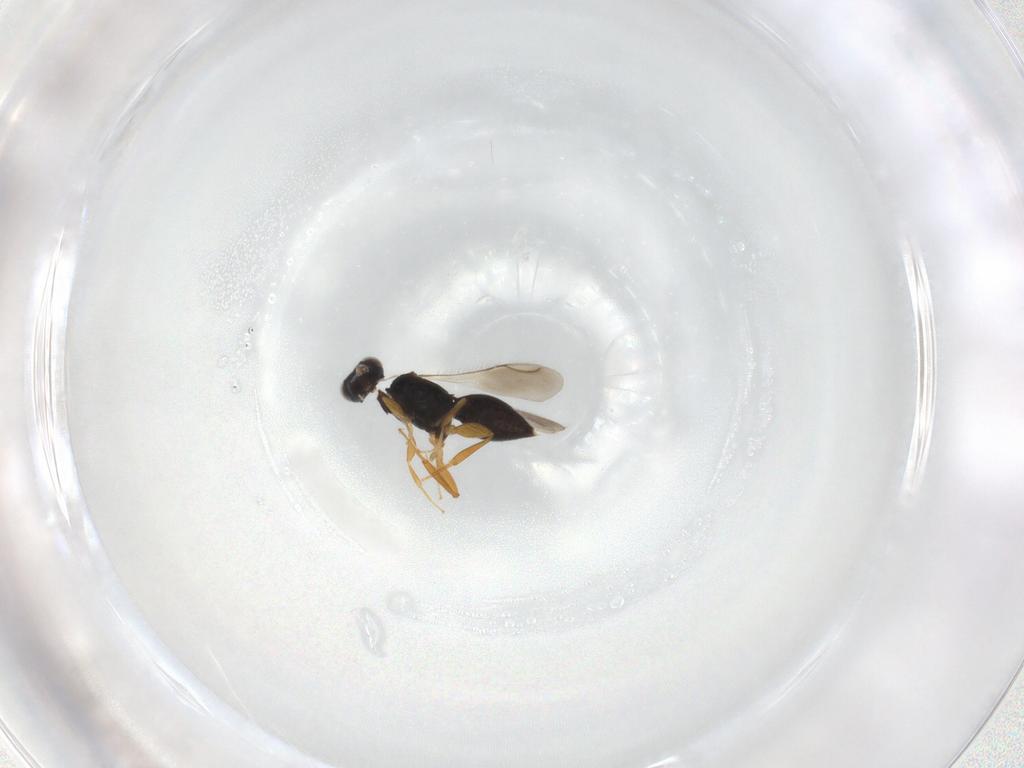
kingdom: Animalia
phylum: Arthropoda
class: Insecta
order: Hymenoptera
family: Ceraphronidae
